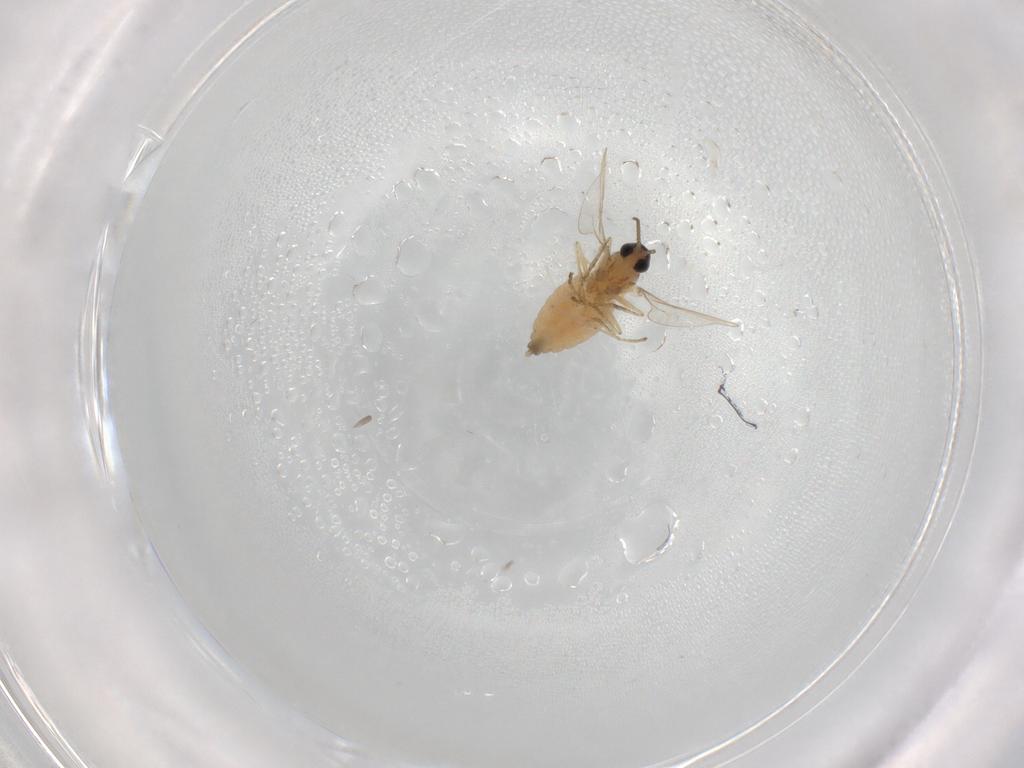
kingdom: Animalia
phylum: Arthropoda
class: Insecta
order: Diptera
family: Cecidomyiidae
